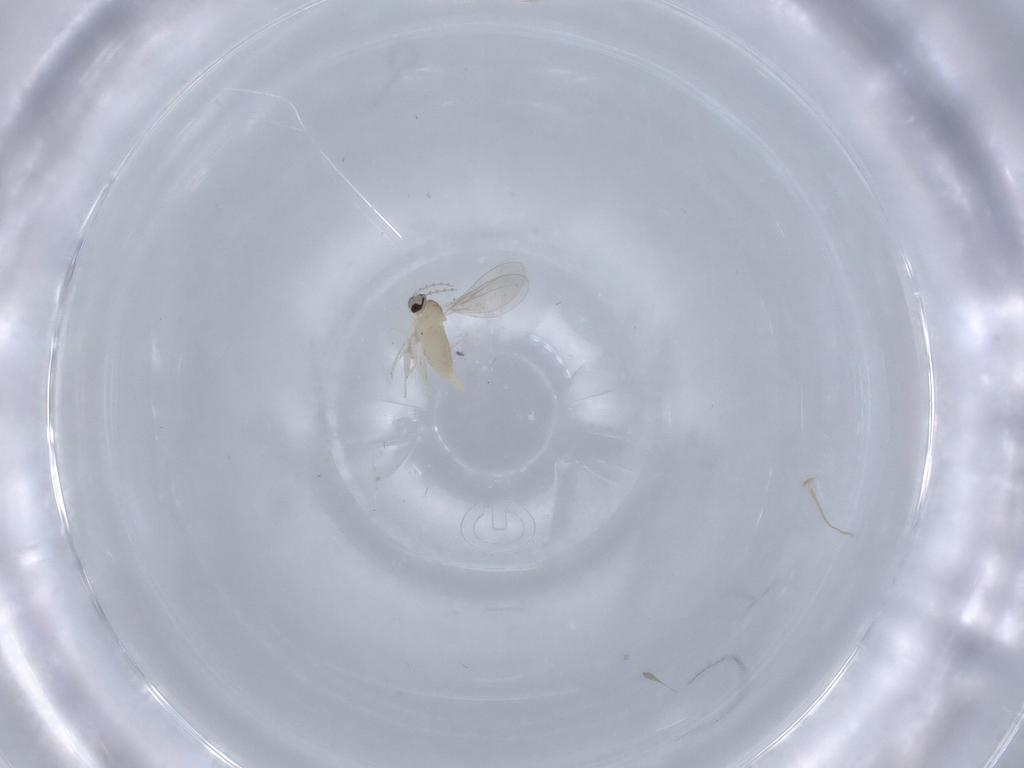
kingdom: Animalia
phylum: Arthropoda
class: Insecta
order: Diptera
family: Cecidomyiidae
